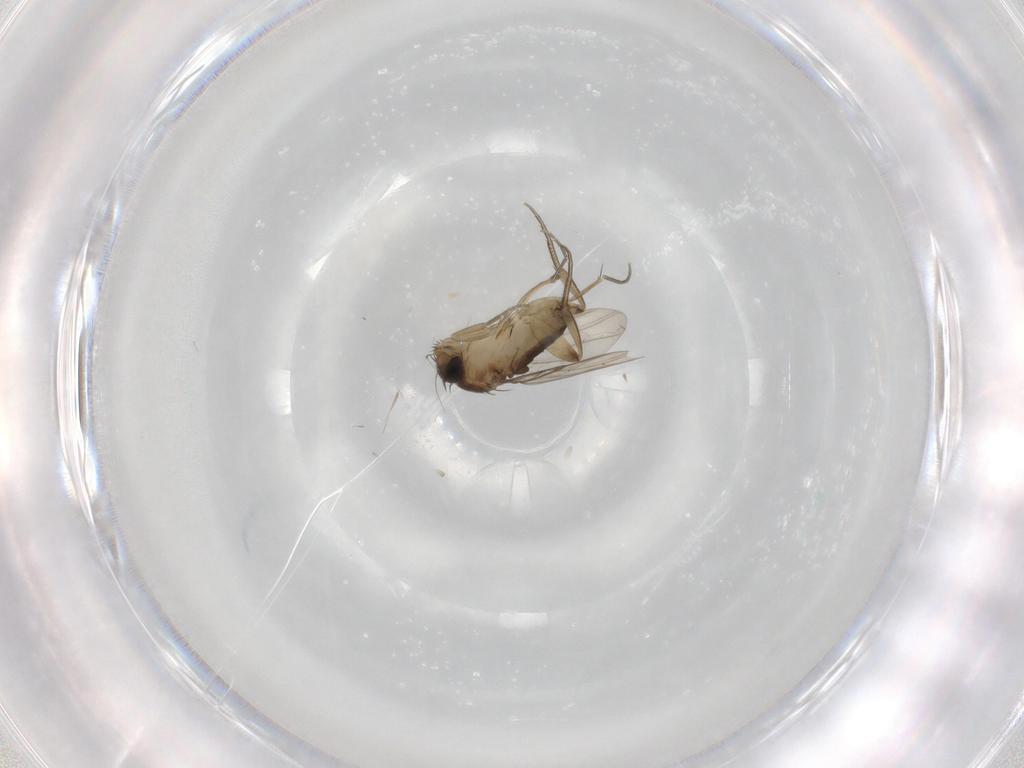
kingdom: Animalia
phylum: Arthropoda
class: Insecta
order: Diptera
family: Phoridae
